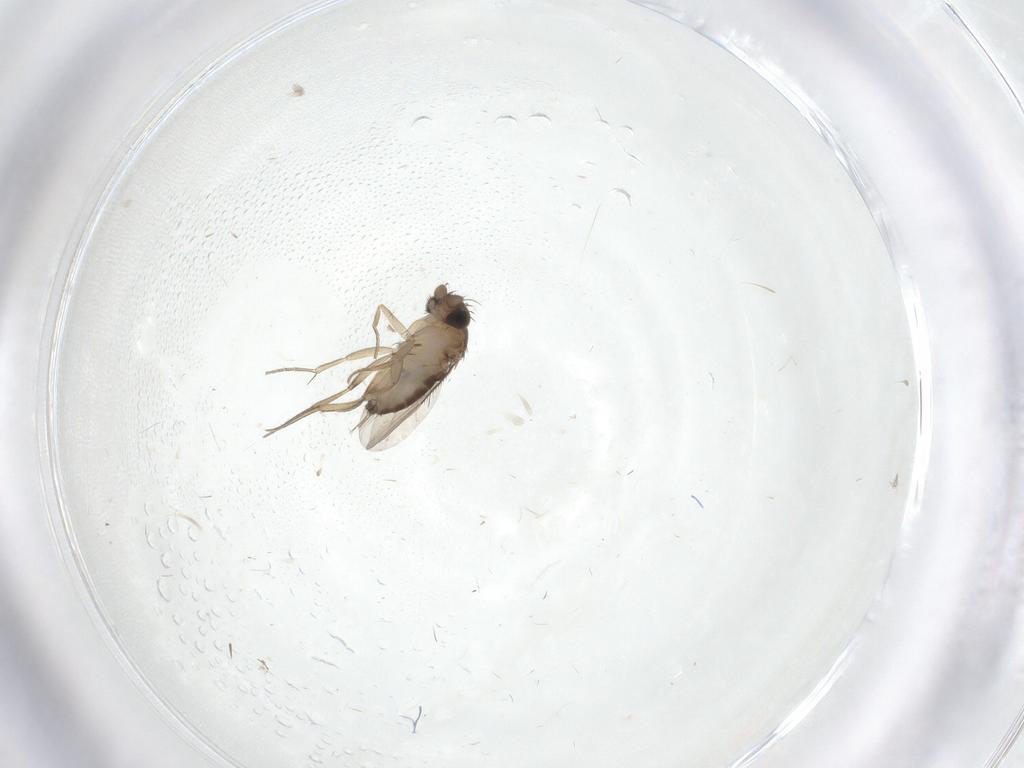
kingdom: Animalia
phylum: Arthropoda
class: Insecta
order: Diptera
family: Phoridae
